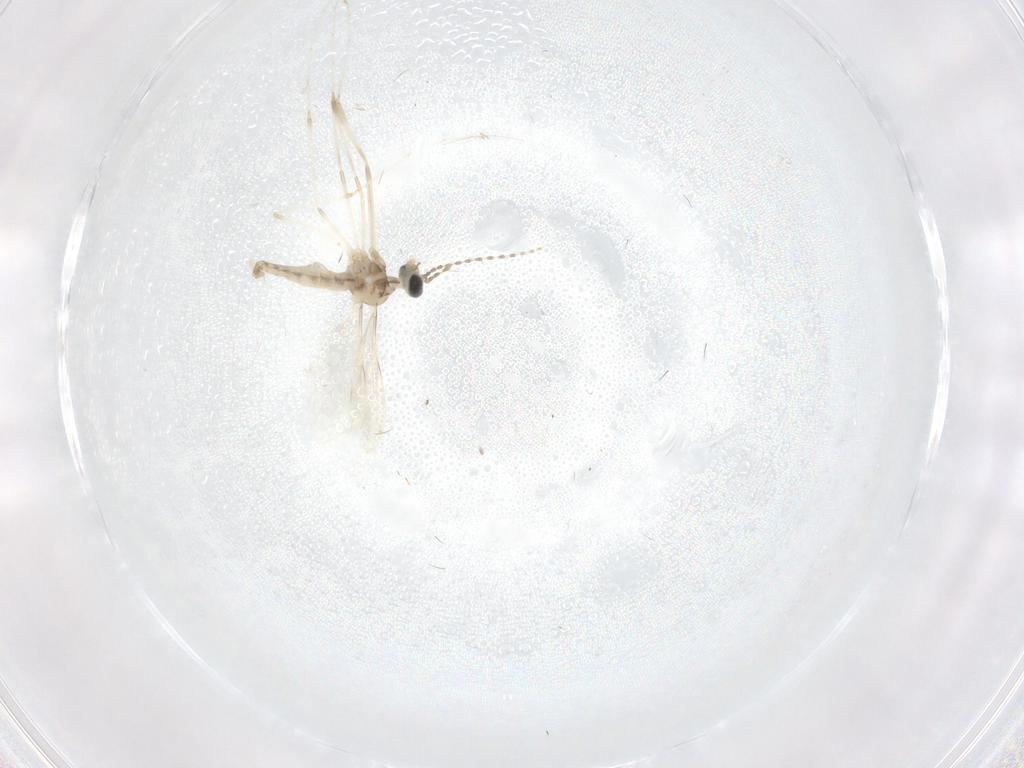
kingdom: Animalia
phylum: Arthropoda
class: Insecta
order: Diptera
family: Cecidomyiidae
